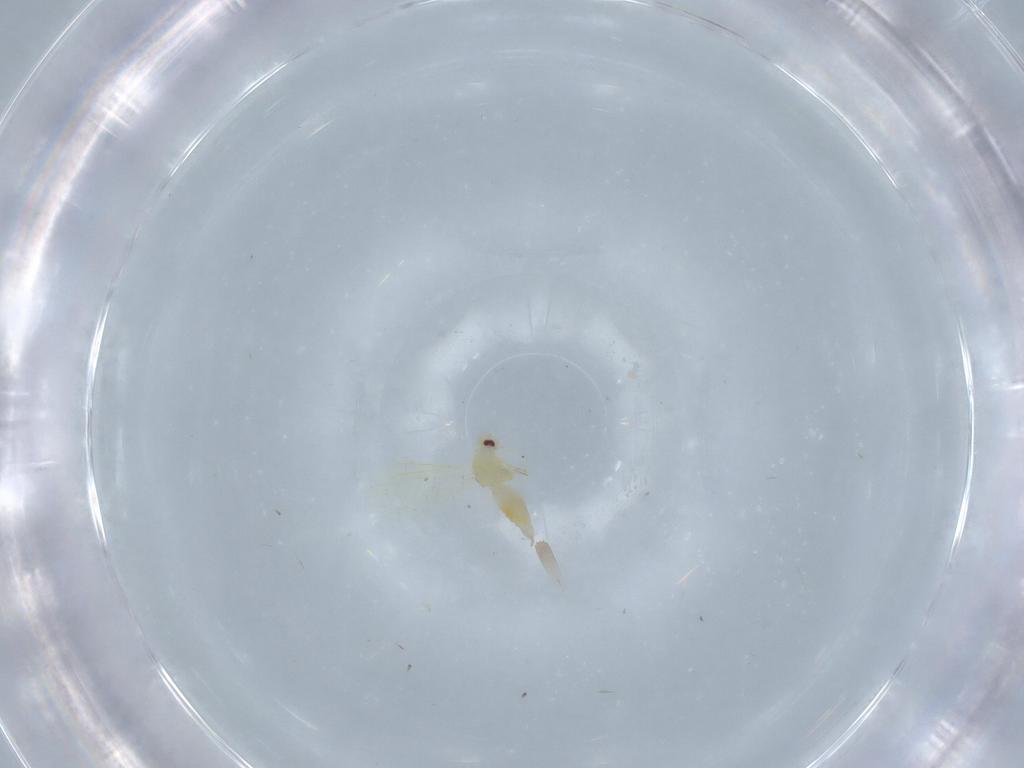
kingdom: Animalia
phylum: Arthropoda
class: Insecta
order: Hemiptera
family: Aleyrodidae
